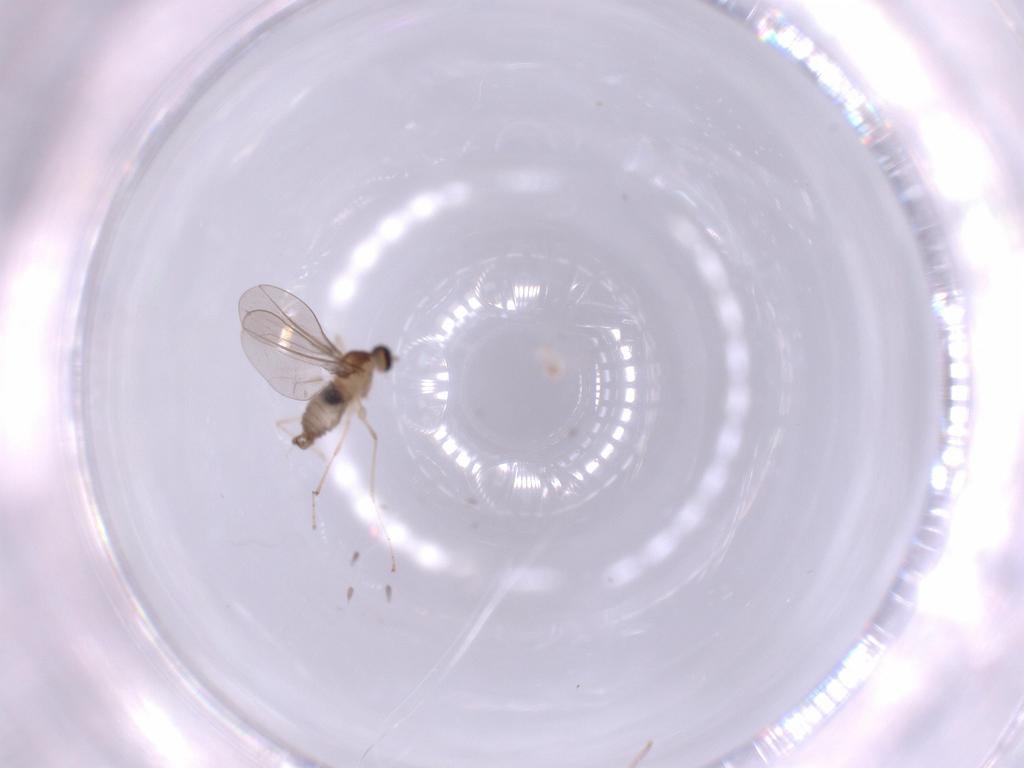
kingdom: Animalia
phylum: Arthropoda
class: Insecta
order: Diptera
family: Cecidomyiidae
